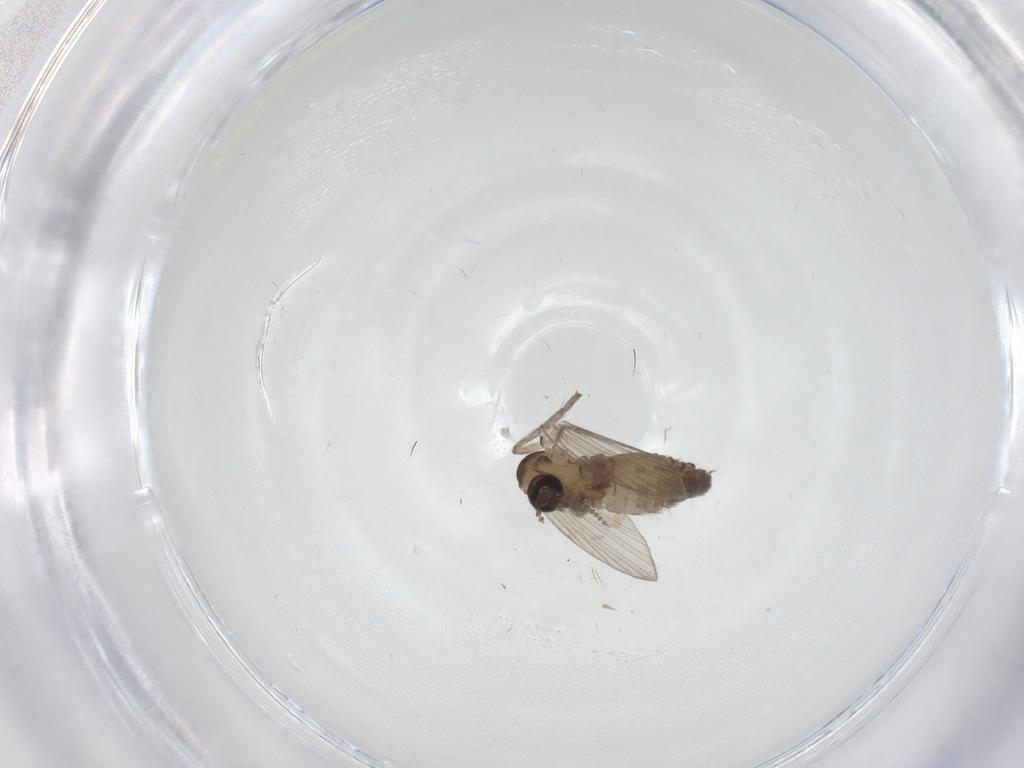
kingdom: Animalia
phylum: Arthropoda
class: Insecta
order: Diptera
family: Psychodidae
